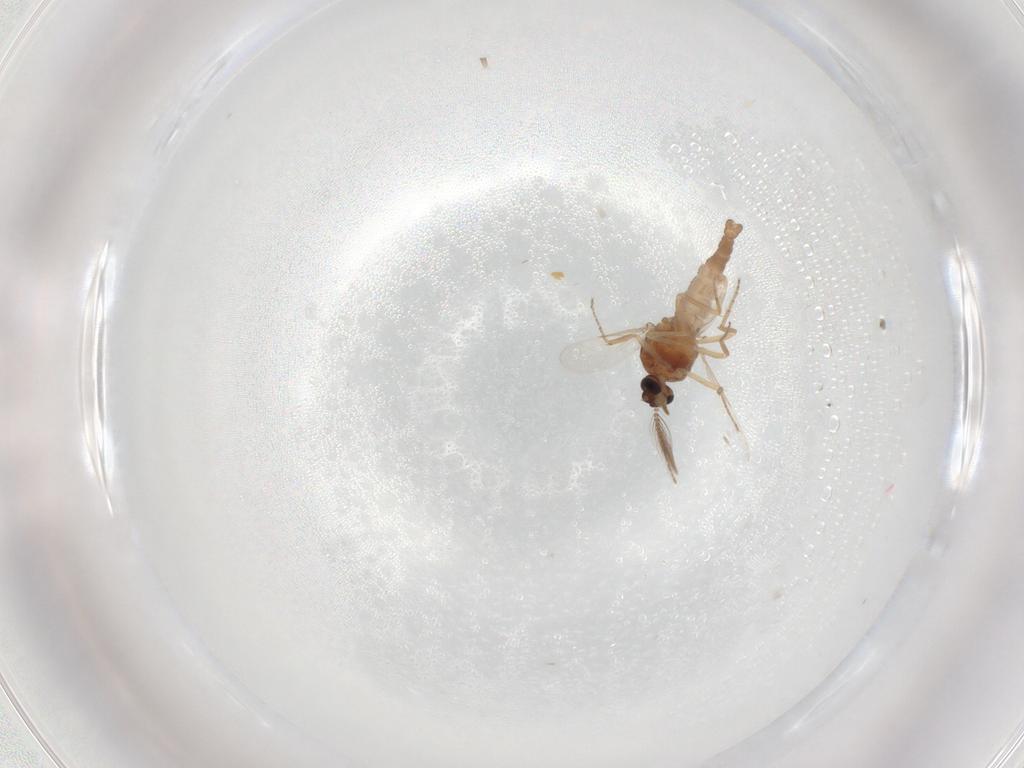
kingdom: Animalia
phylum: Arthropoda
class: Insecta
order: Diptera
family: Ceratopogonidae
